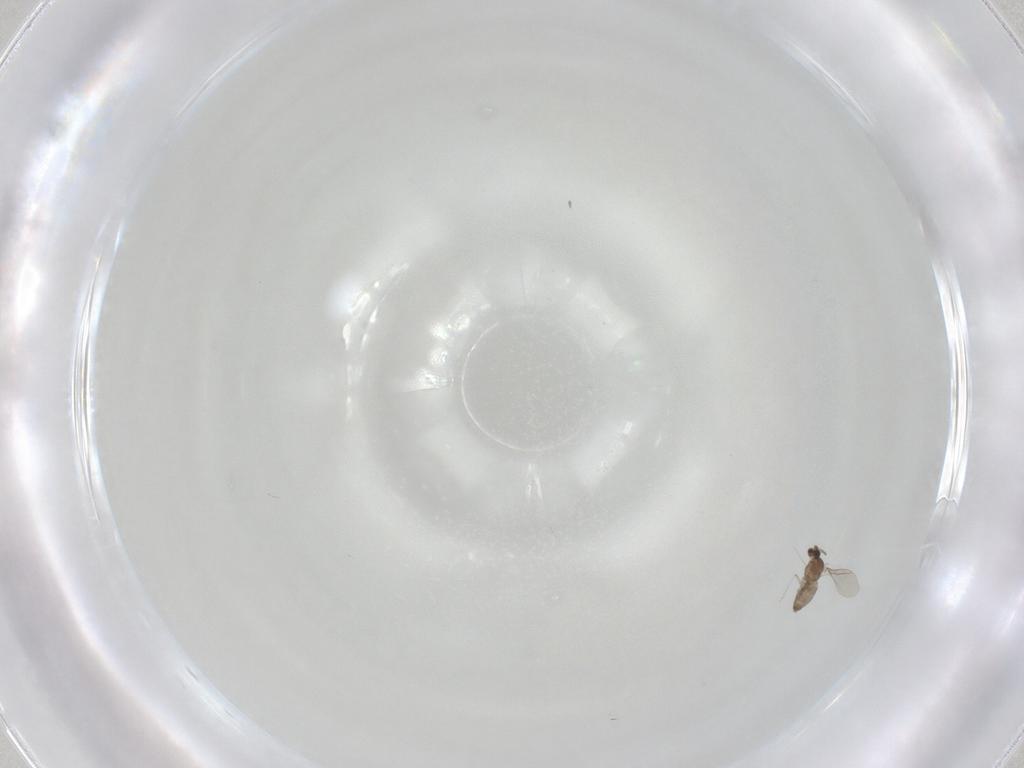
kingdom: Animalia
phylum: Arthropoda
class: Insecta
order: Diptera
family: Cecidomyiidae
